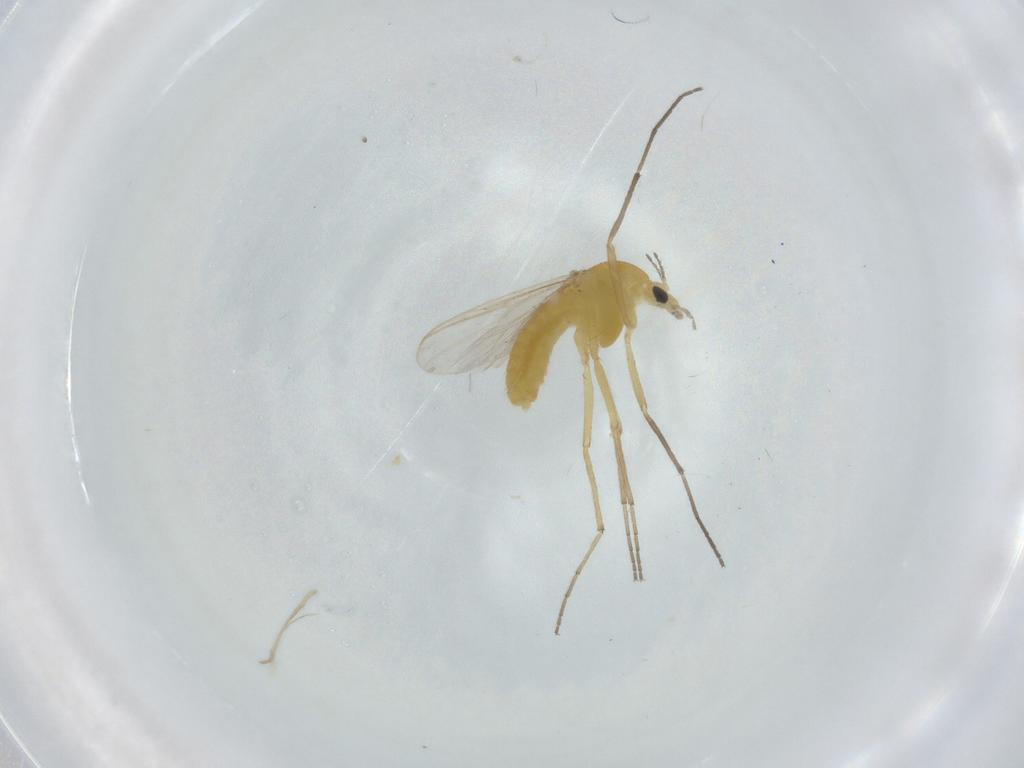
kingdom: Animalia
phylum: Arthropoda
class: Insecta
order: Diptera
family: Chironomidae
